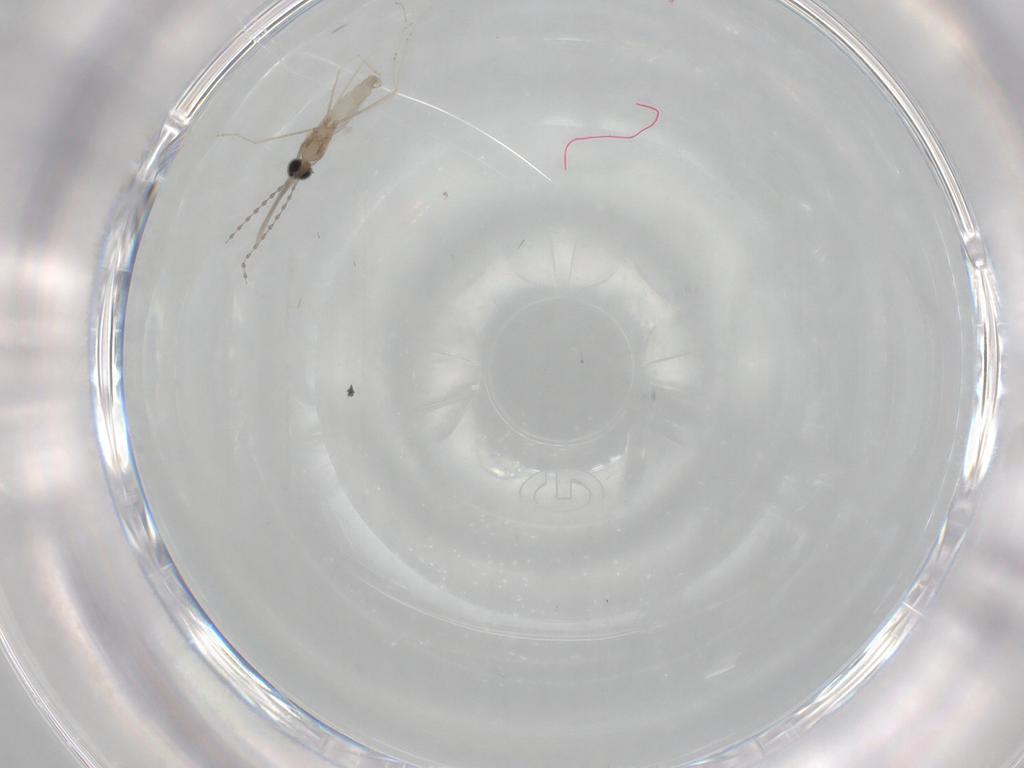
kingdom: Animalia
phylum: Arthropoda
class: Insecta
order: Diptera
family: Cecidomyiidae
